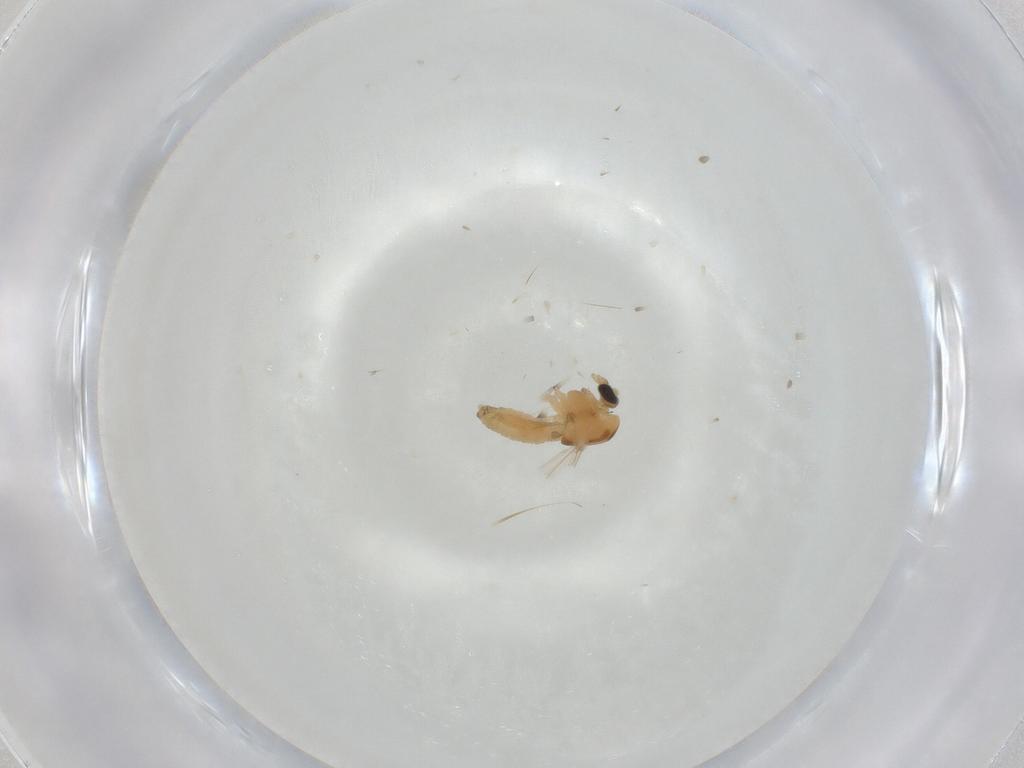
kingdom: Animalia
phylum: Arthropoda
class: Insecta
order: Diptera
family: Chironomidae
